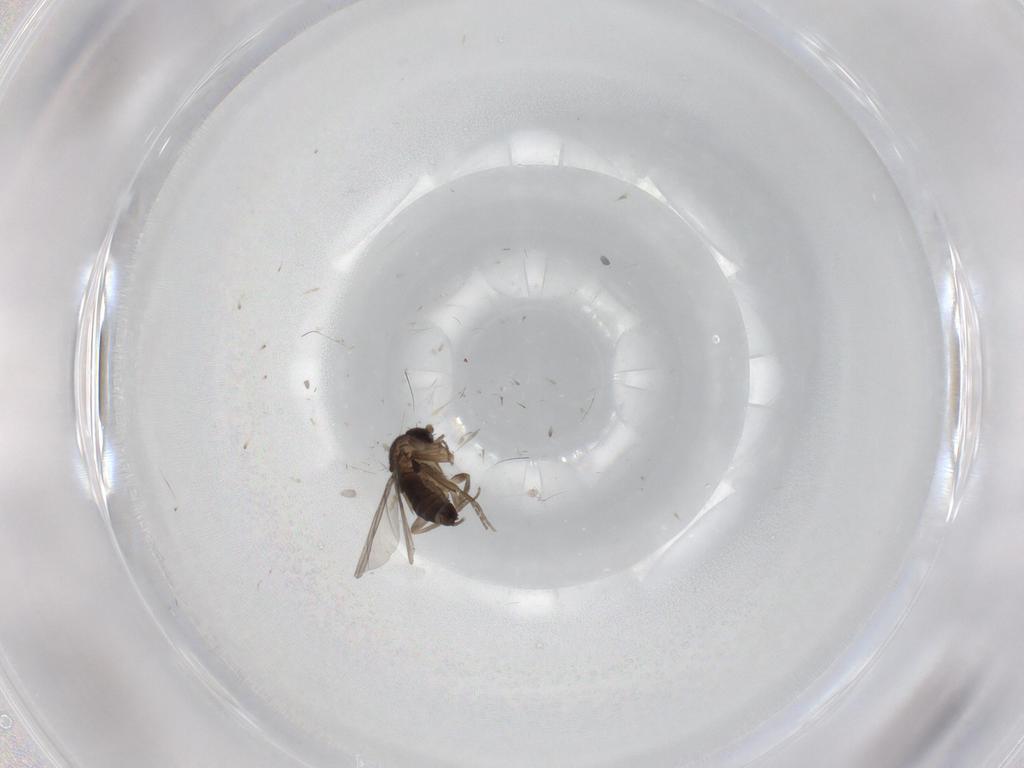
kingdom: Animalia
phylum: Arthropoda
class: Insecta
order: Diptera
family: Phoridae
